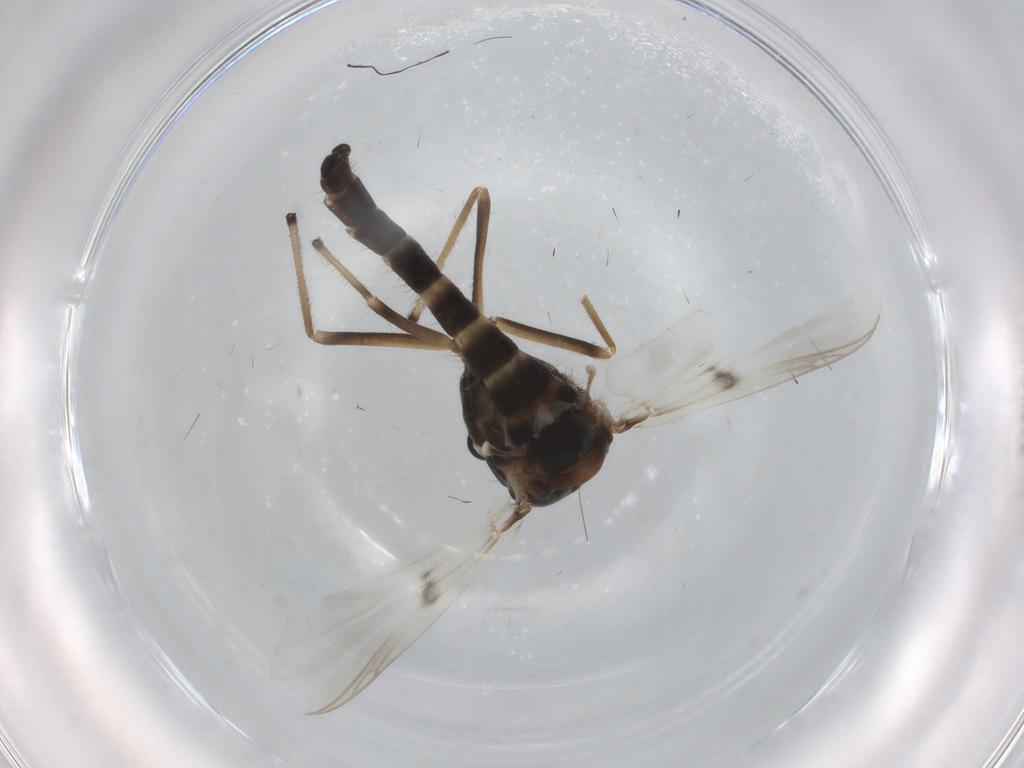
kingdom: Animalia
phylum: Arthropoda
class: Insecta
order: Diptera
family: Chironomidae
